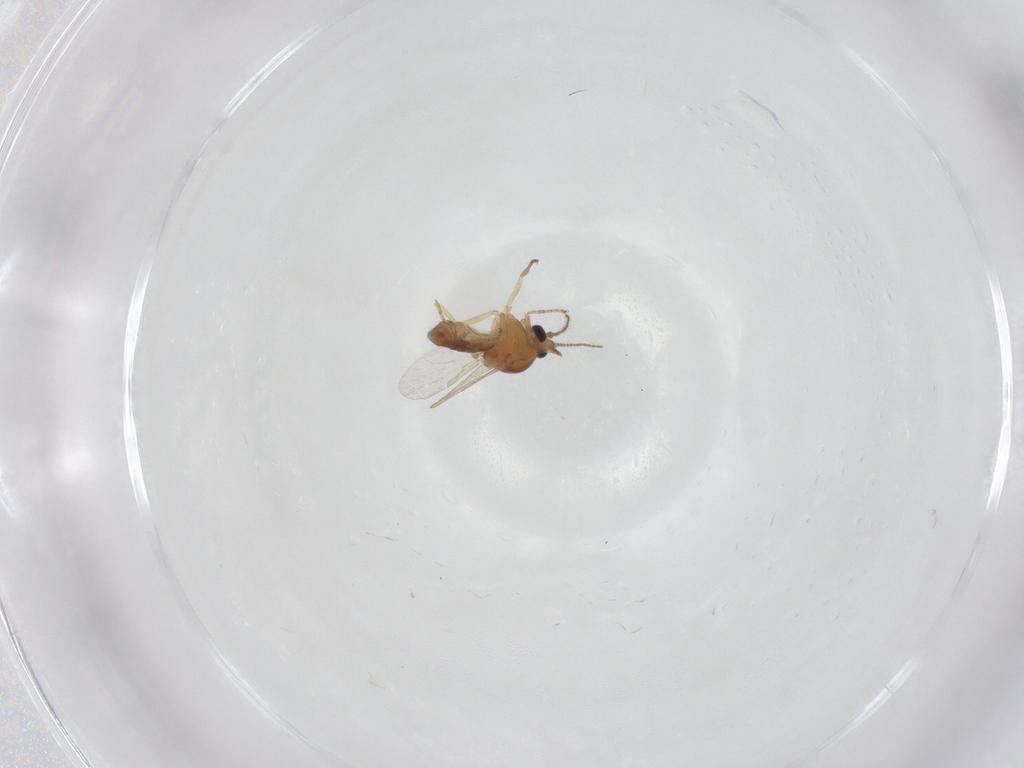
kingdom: Animalia
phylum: Arthropoda
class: Insecta
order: Diptera
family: Ceratopogonidae
